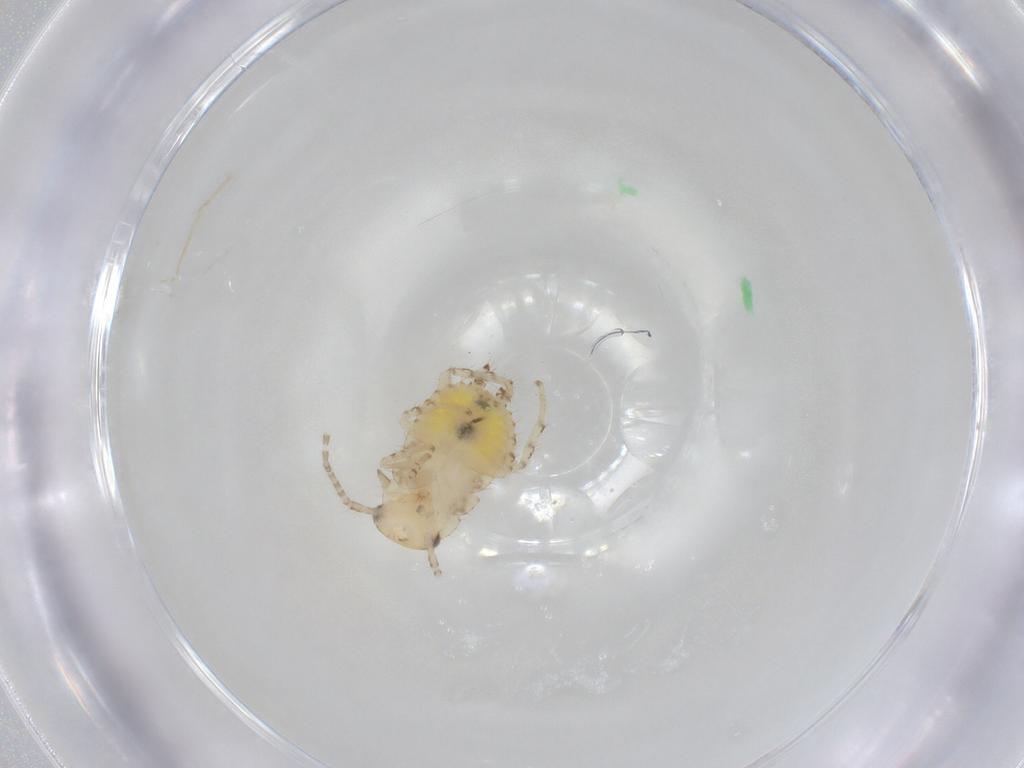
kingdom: Animalia
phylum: Arthropoda
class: Insecta
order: Blattodea
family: Ectobiidae
